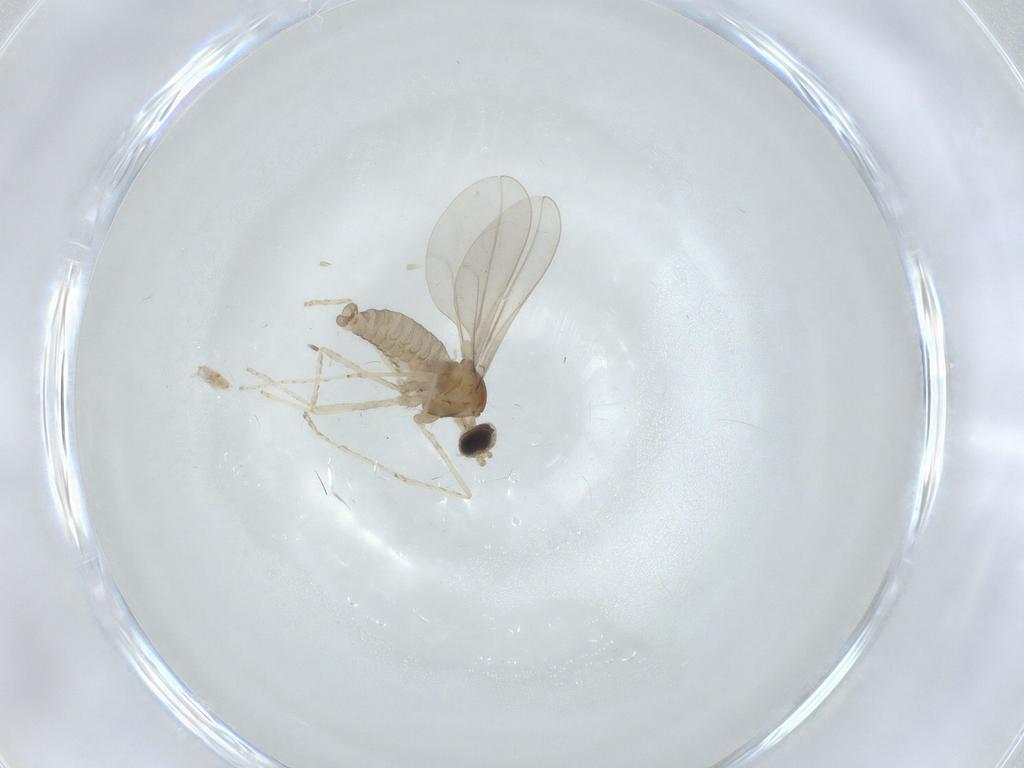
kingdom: Animalia
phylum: Arthropoda
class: Insecta
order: Diptera
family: Cecidomyiidae
